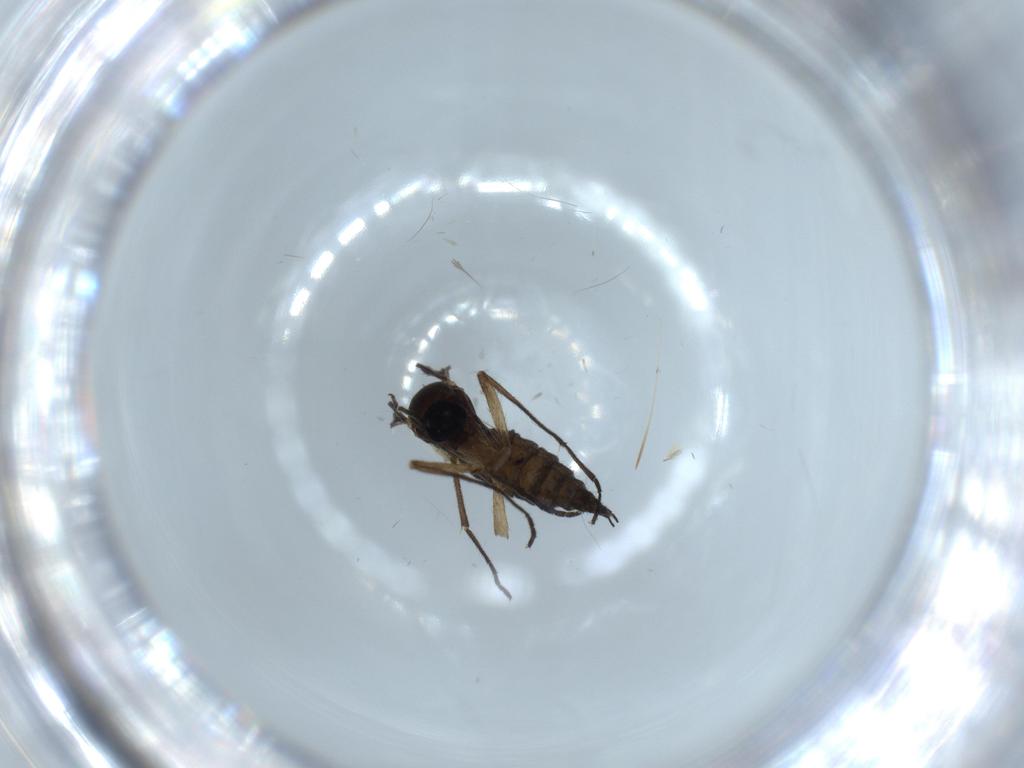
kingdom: Animalia
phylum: Arthropoda
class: Insecta
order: Diptera
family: Sciaridae
